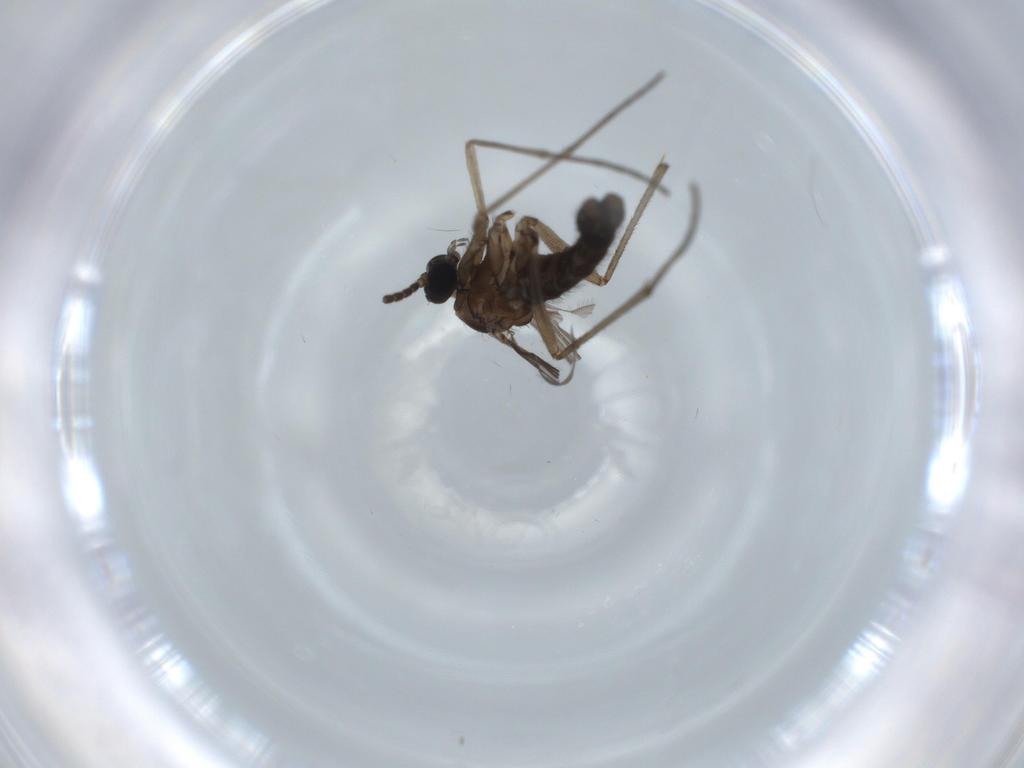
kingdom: Animalia
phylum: Arthropoda
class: Insecta
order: Diptera
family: Sciaridae
